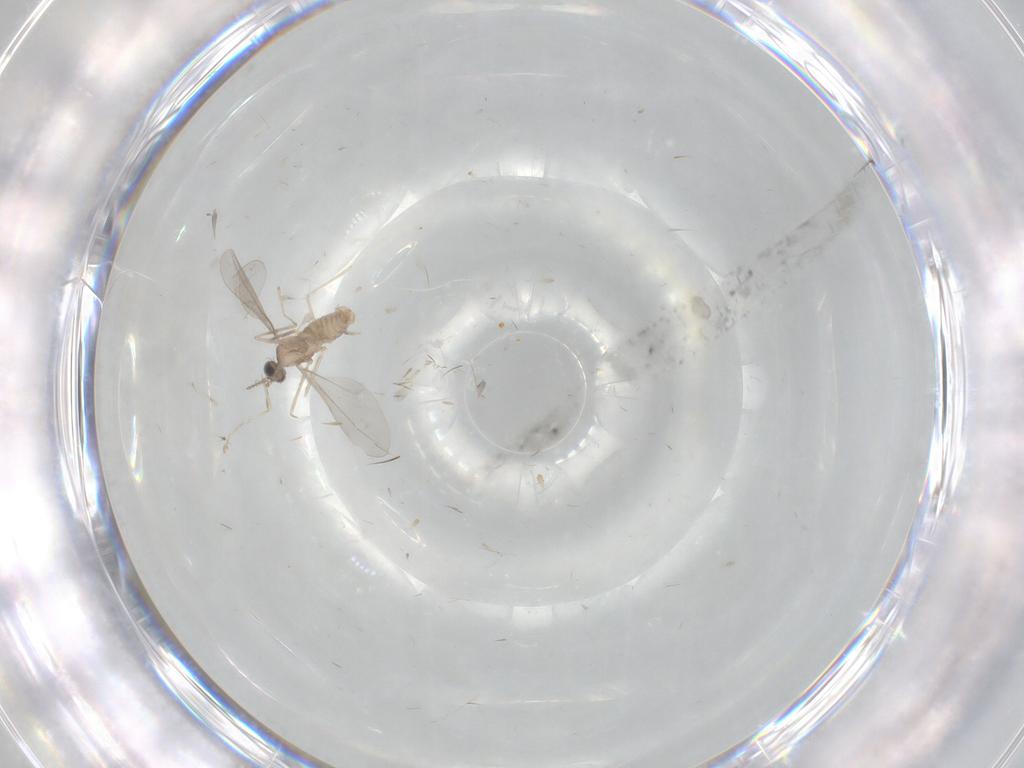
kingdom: Animalia
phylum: Arthropoda
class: Insecta
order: Diptera
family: Cecidomyiidae
